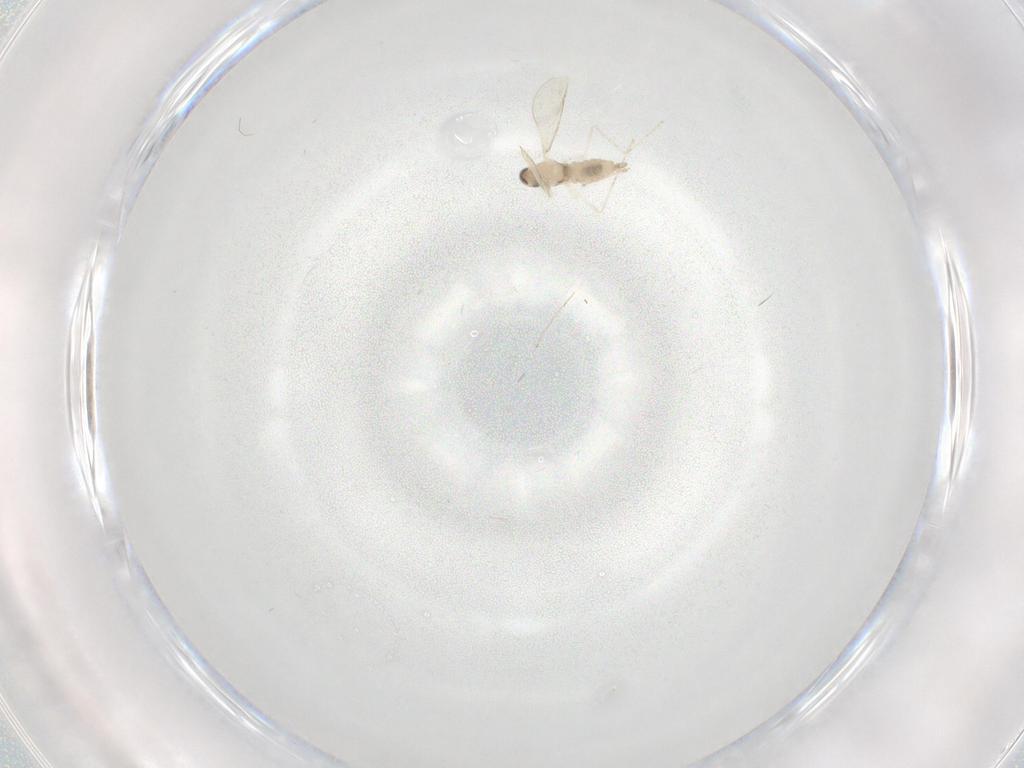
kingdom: Animalia
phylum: Arthropoda
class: Insecta
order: Diptera
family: Cecidomyiidae
